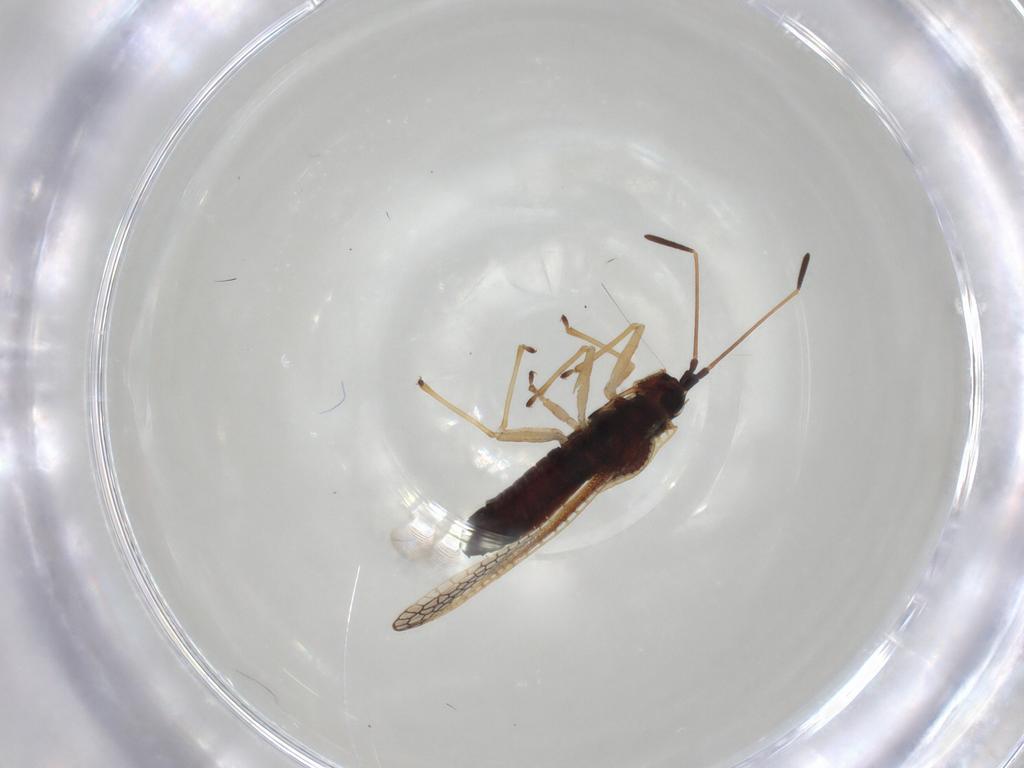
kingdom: Animalia
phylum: Arthropoda
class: Insecta
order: Hemiptera
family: Tingidae
